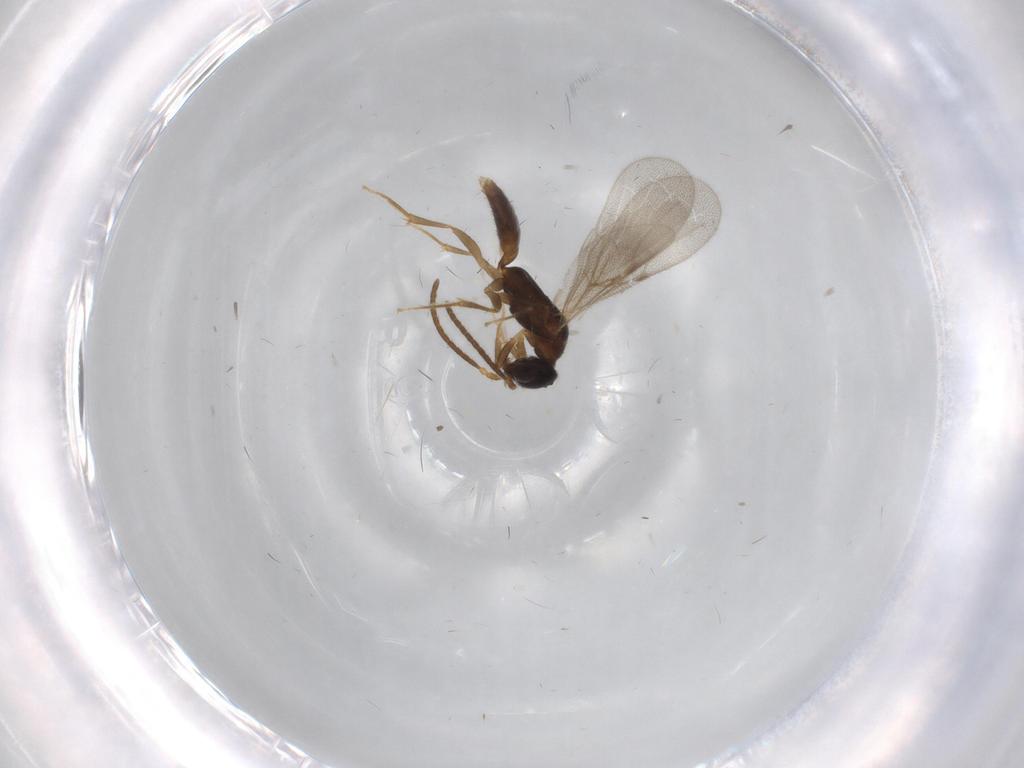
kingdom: Animalia
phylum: Arthropoda
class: Insecta
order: Hymenoptera
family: Bethylidae
